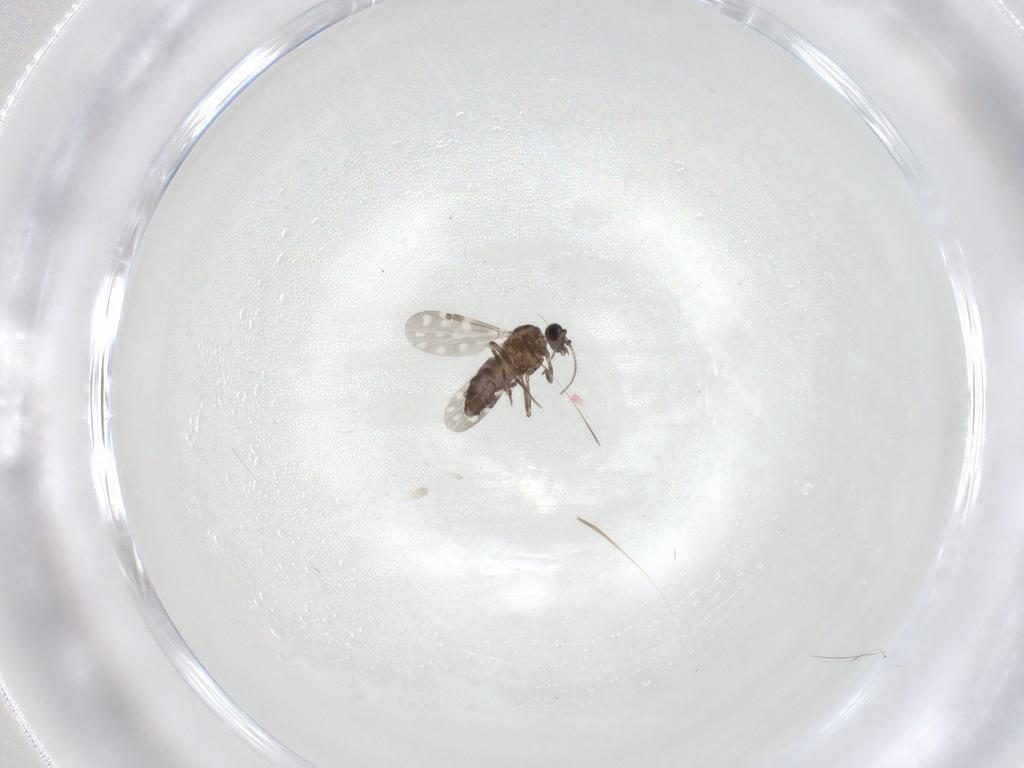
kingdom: Animalia
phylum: Arthropoda
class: Insecta
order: Diptera
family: Ceratopogonidae
